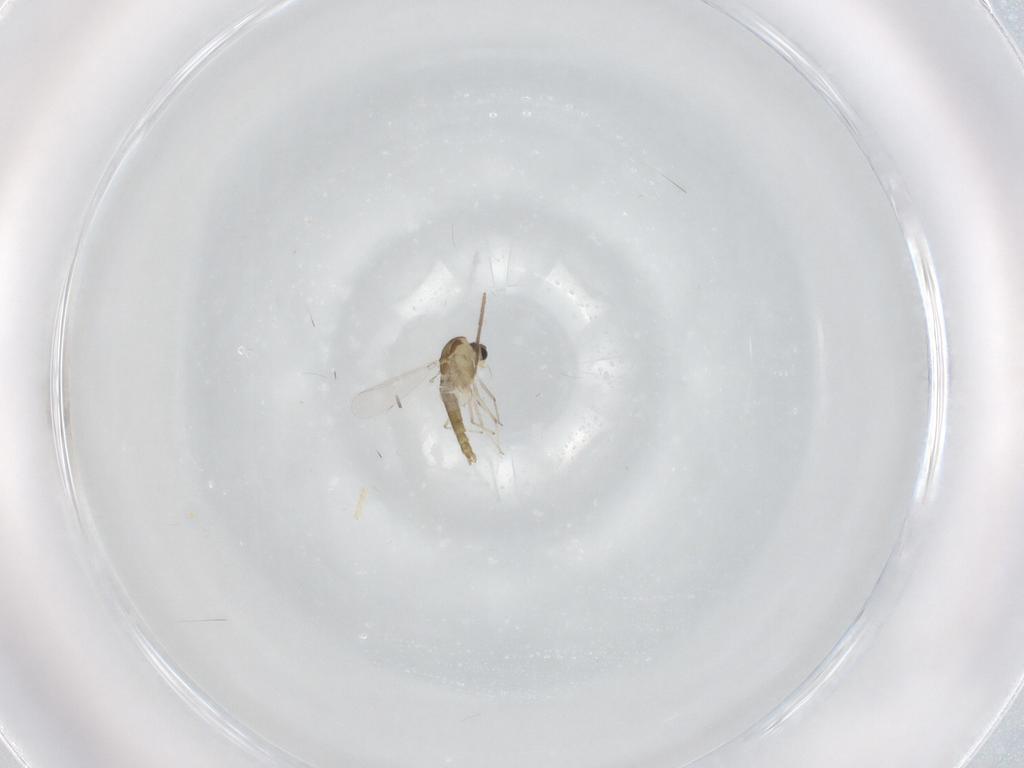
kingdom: Animalia
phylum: Arthropoda
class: Insecta
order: Diptera
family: Chironomidae
